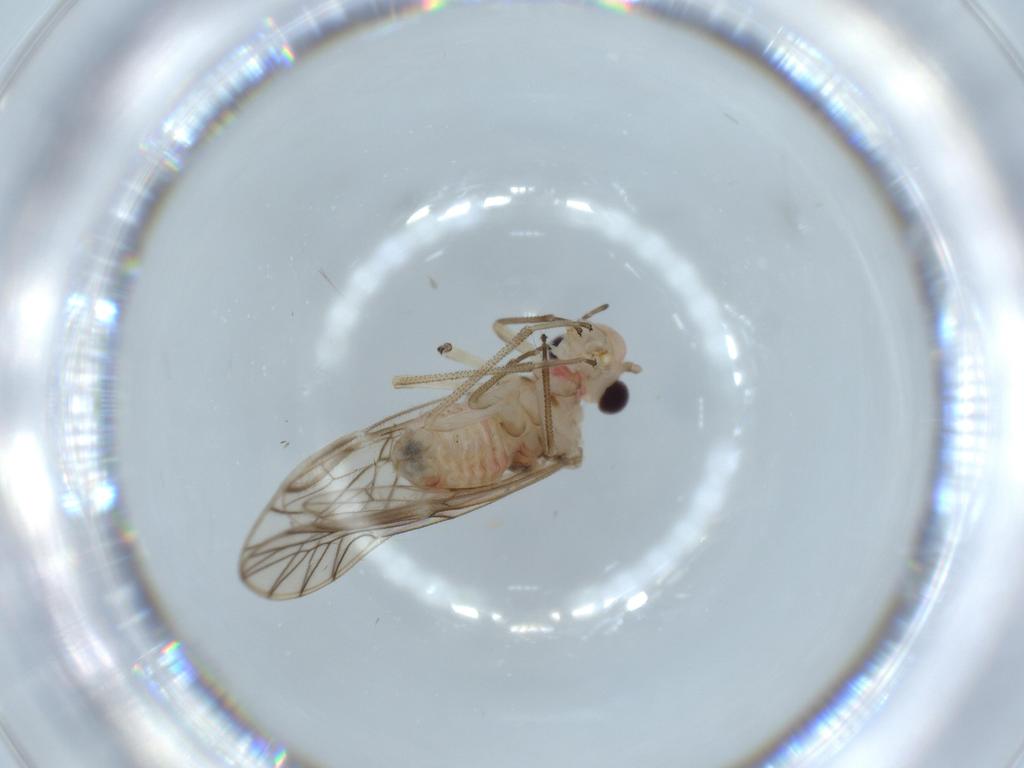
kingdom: Animalia
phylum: Arthropoda
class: Insecta
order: Diptera
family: Cecidomyiidae
